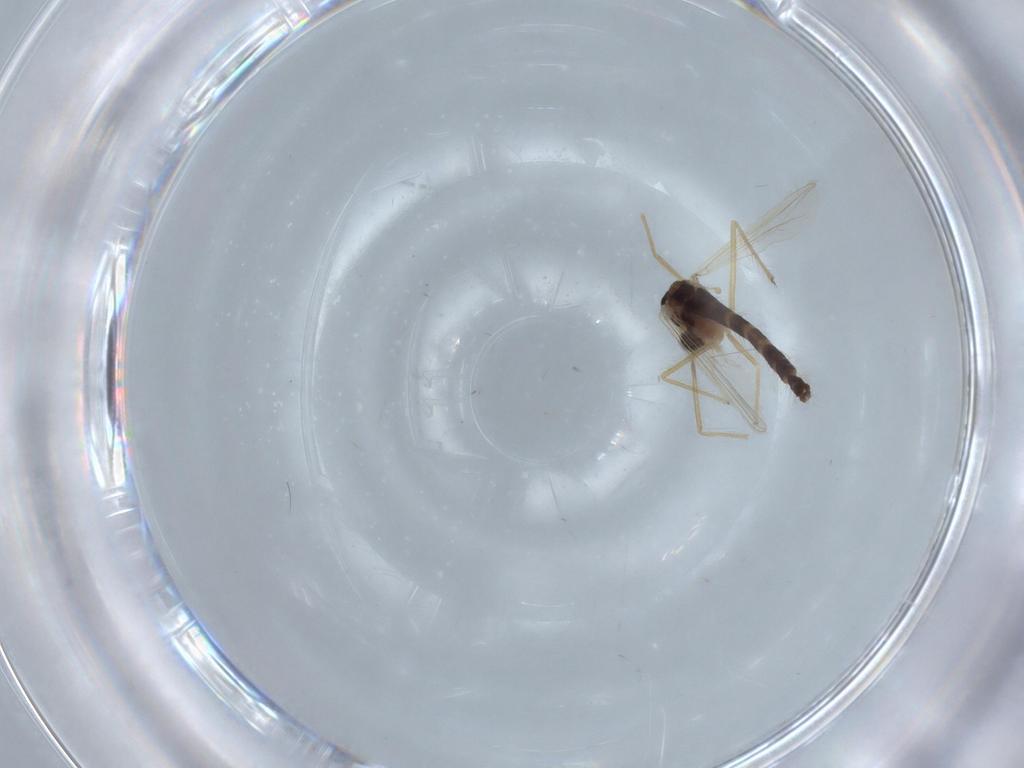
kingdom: Animalia
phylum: Arthropoda
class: Insecta
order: Diptera
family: Chironomidae
